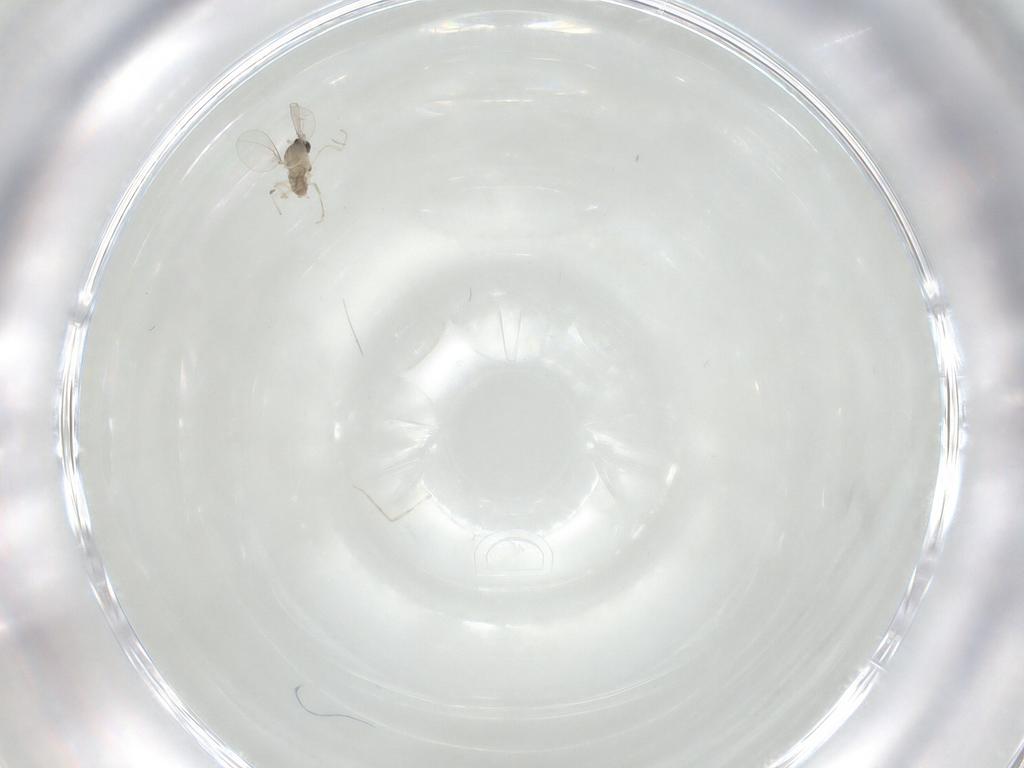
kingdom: Animalia
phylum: Arthropoda
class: Insecta
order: Diptera
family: Cecidomyiidae
